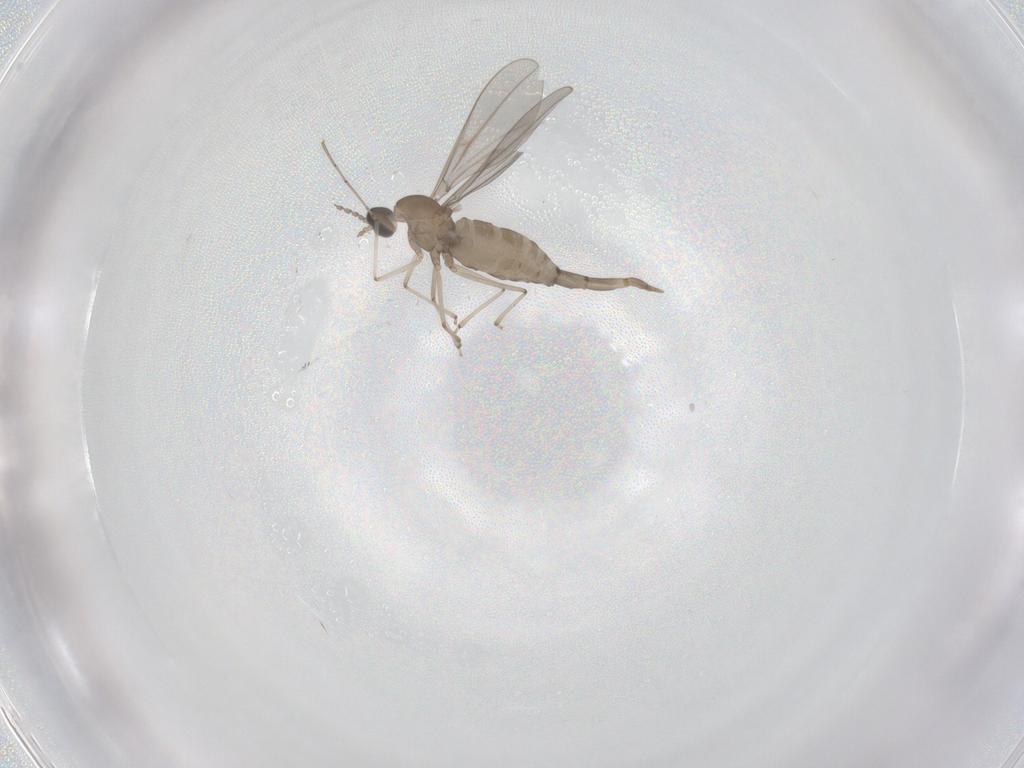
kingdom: Animalia
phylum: Arthropoda
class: Insecta
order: Diptera
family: Cecidomyiidae
